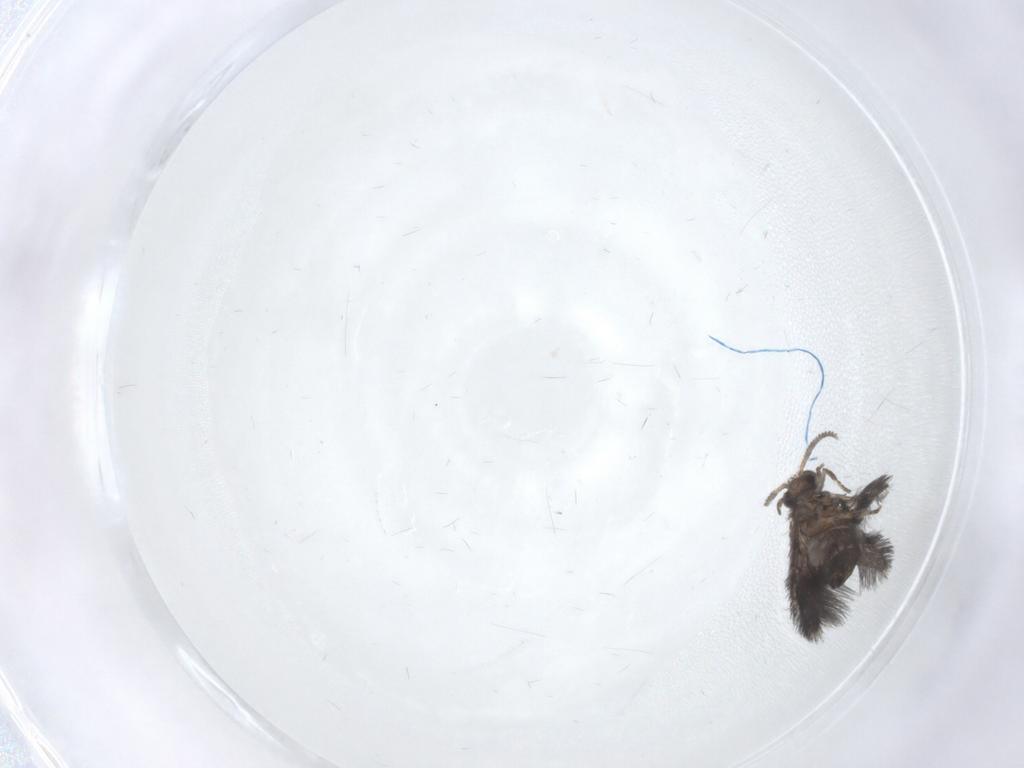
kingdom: Animalia
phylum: Arthropoda
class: Insecta
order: Trichoptera
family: Hydroptilidae
